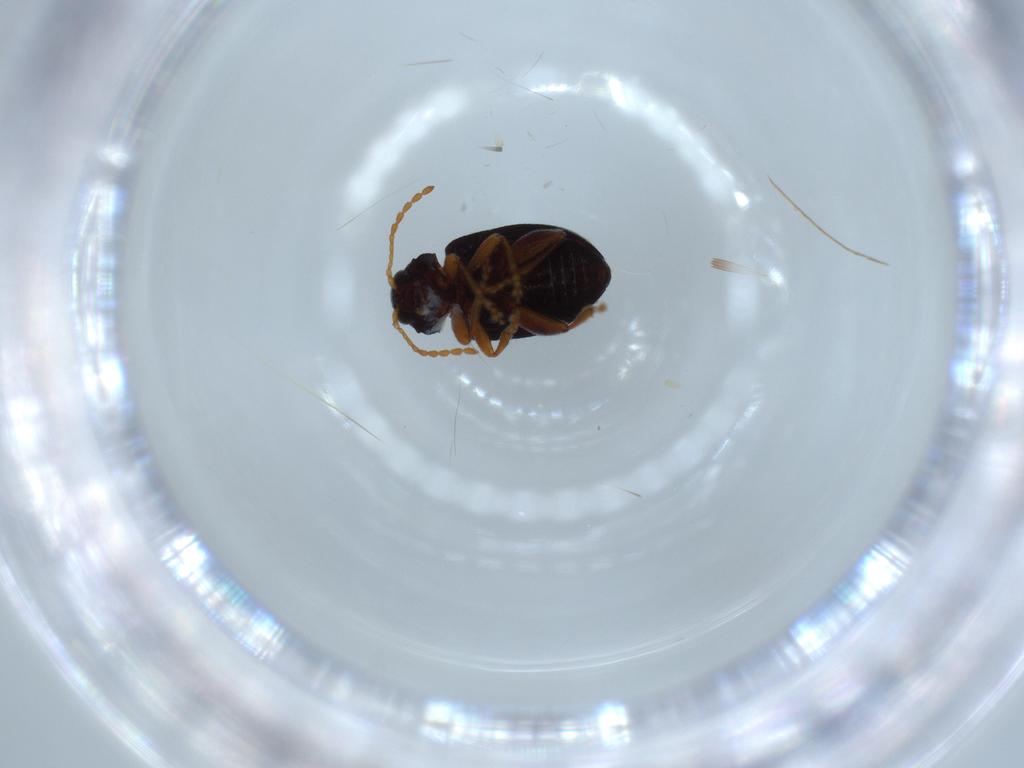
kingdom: Animalia
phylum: Arthropoda
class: Insecta
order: Coleoptera
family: Chrysomelidae
